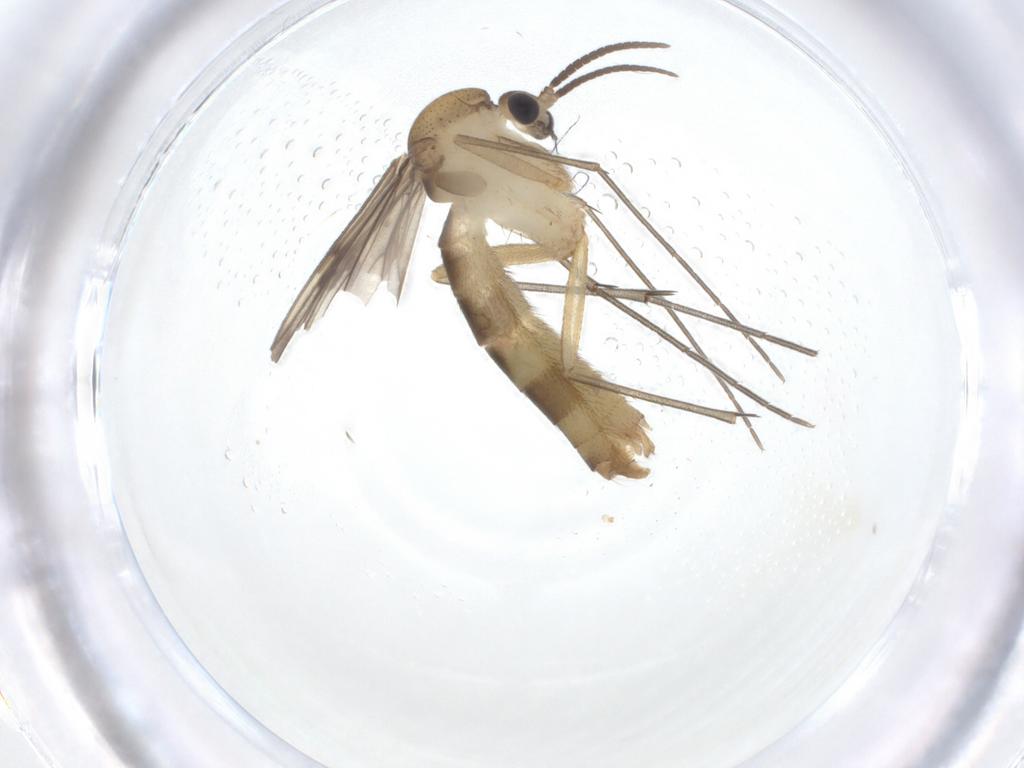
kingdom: Animalia
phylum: Arthropoda
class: Insecta
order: Diptera
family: Mycetophilidae
